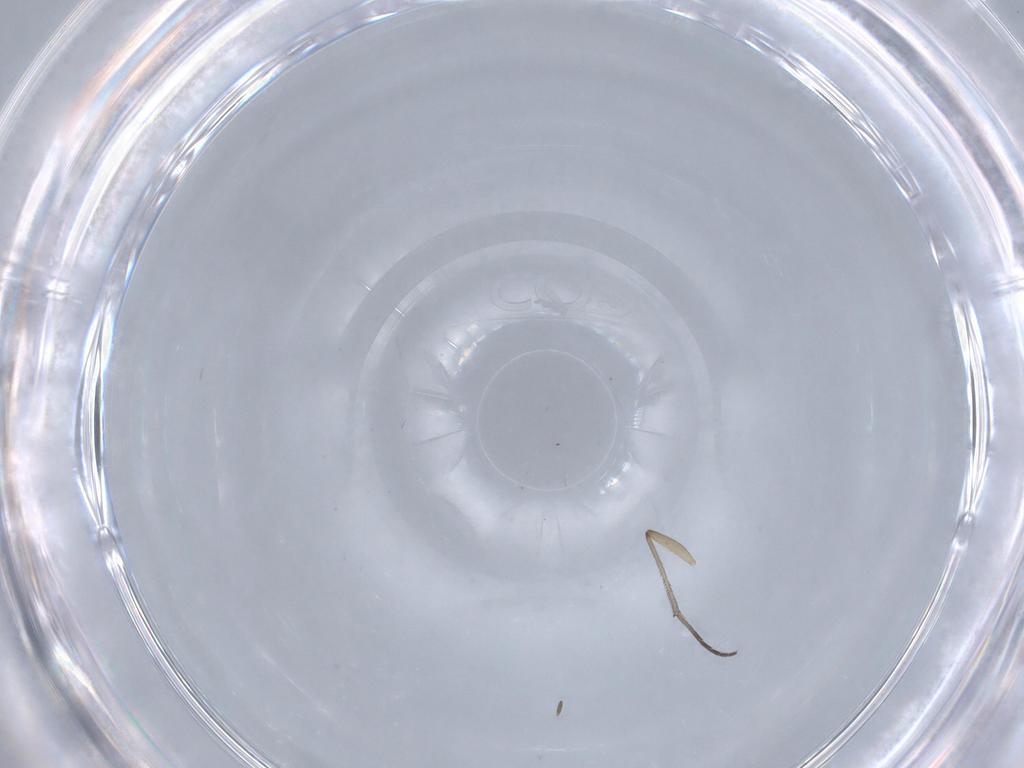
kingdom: Animalia
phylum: Arthropoda
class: Insecta
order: Diptera
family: Chironomidae
